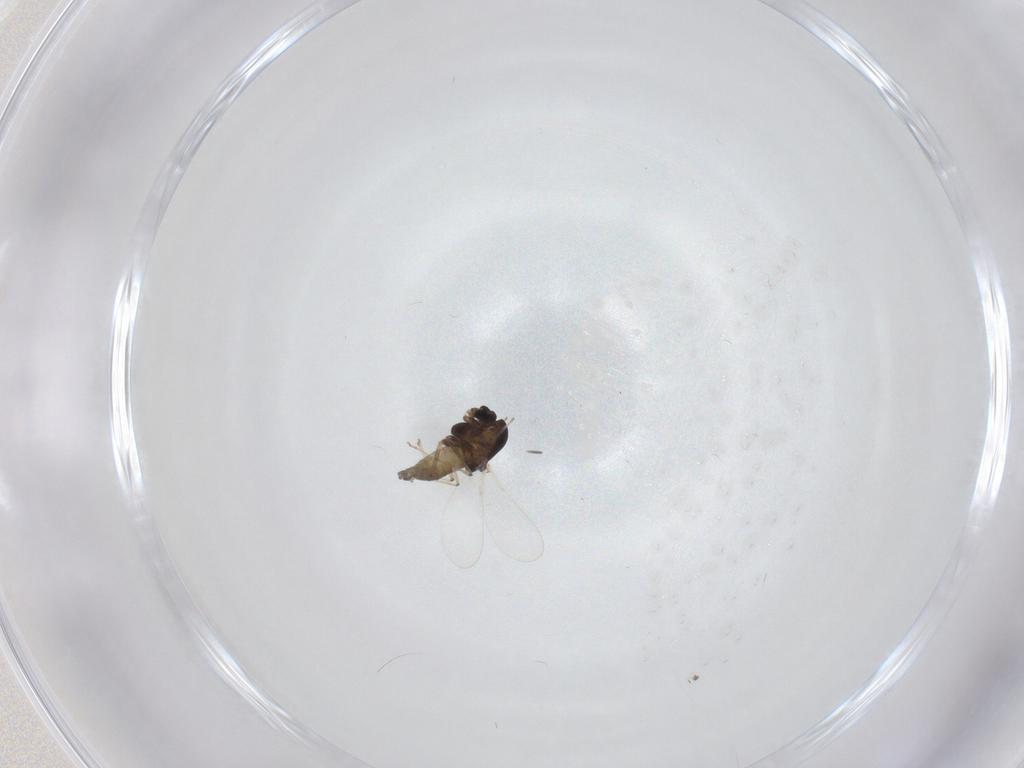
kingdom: Animalia
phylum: Arthropoda
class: Insecta
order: Diptera
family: Chironomidae
